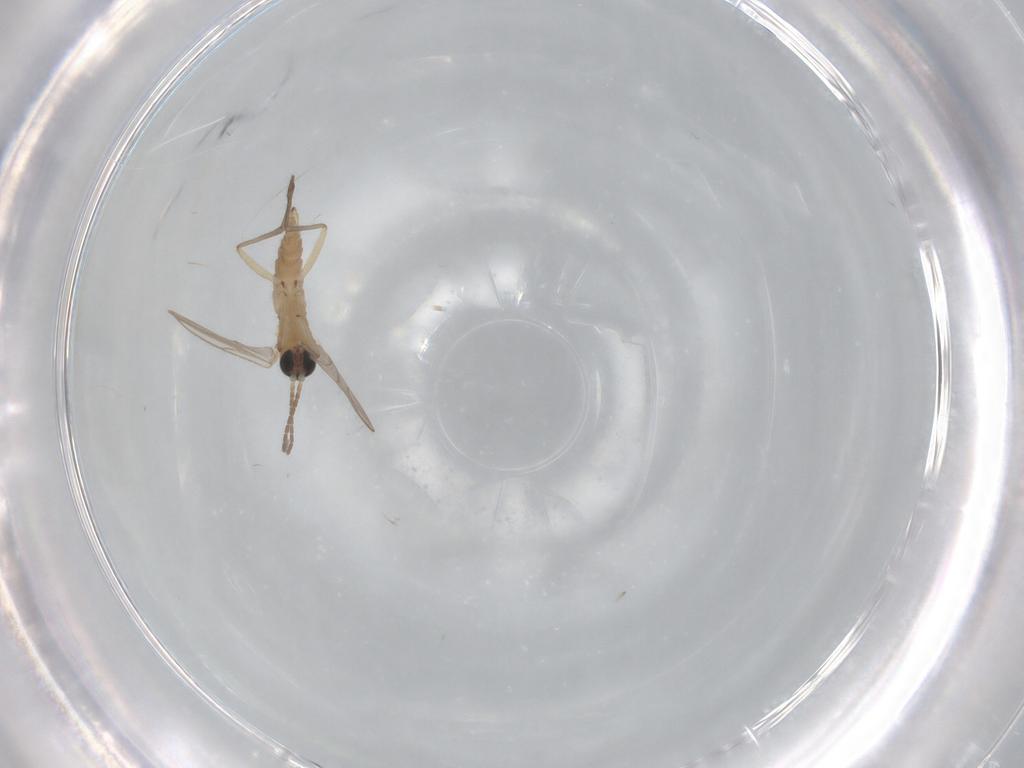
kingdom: Animalia
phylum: Arthropoda
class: Insecta
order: Diptera
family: Sciaridae
